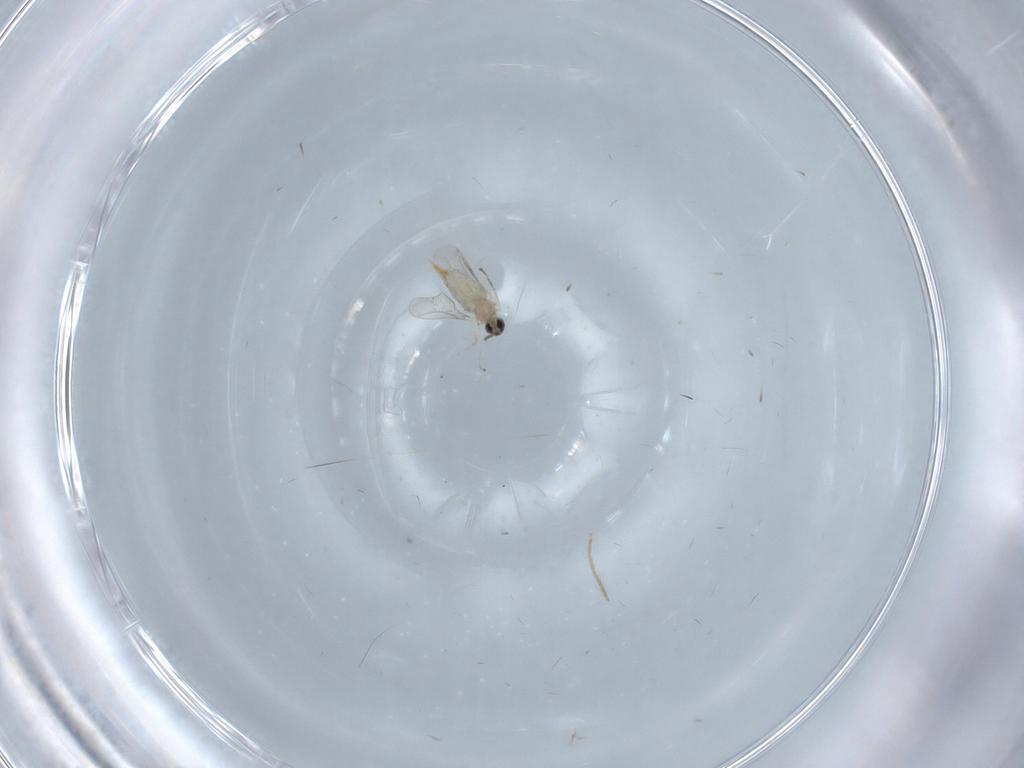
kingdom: Animalia
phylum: Arthropoda
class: Insecta
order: Diptera
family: Cecidomyiidae
